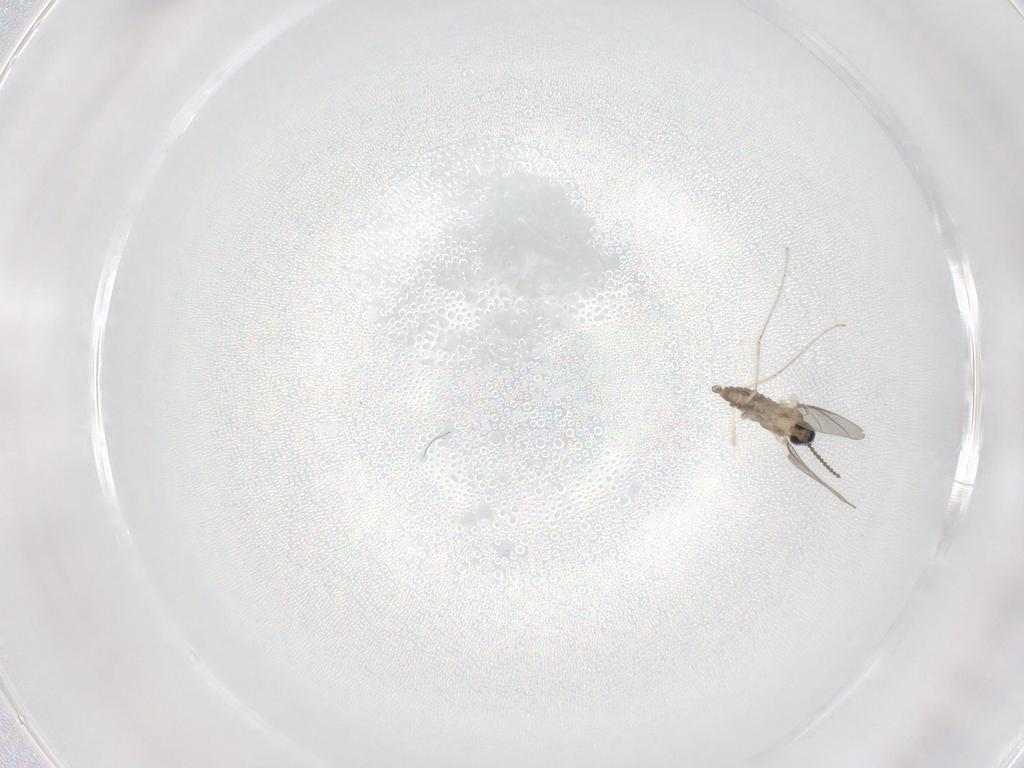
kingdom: Animalia
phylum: Arthropoda
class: Insecta
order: Diptera
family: Cecidomyiidae
